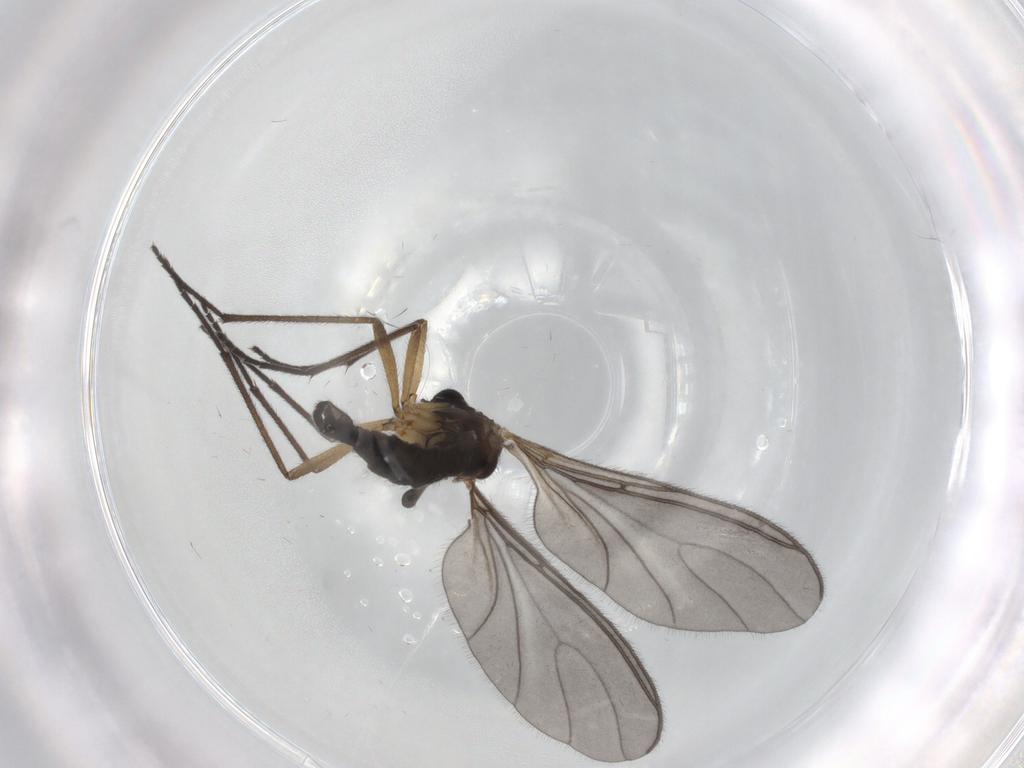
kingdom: Animalia
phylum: Arthropoda
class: Insecta
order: Diptera
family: Sciaridae
